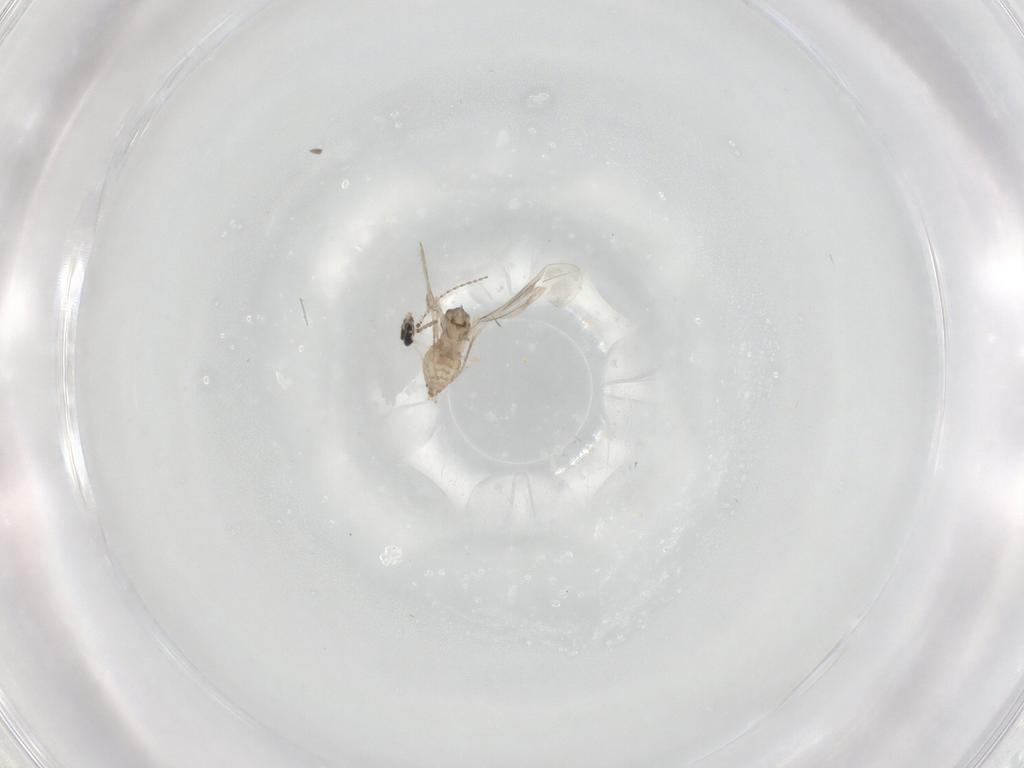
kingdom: Animalia
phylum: Arthropoda
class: Insecta
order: Diptera
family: Cecidomyiidae
